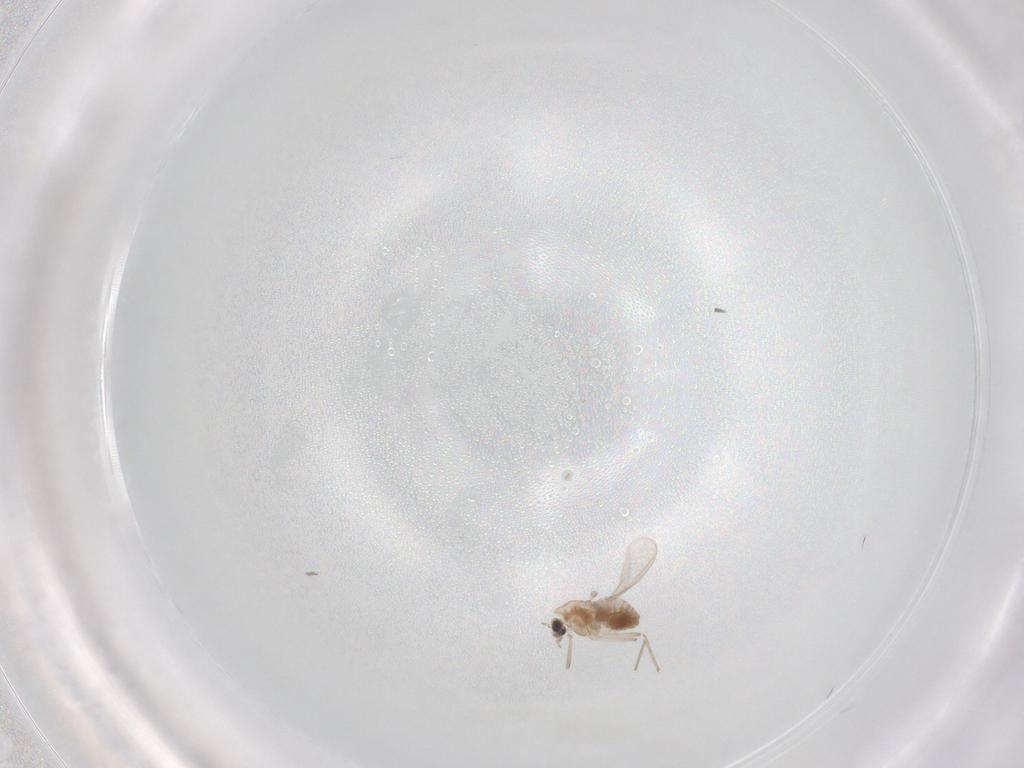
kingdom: Animalia
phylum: Arthropoda
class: Insecta
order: Diptera
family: Chironomidae
